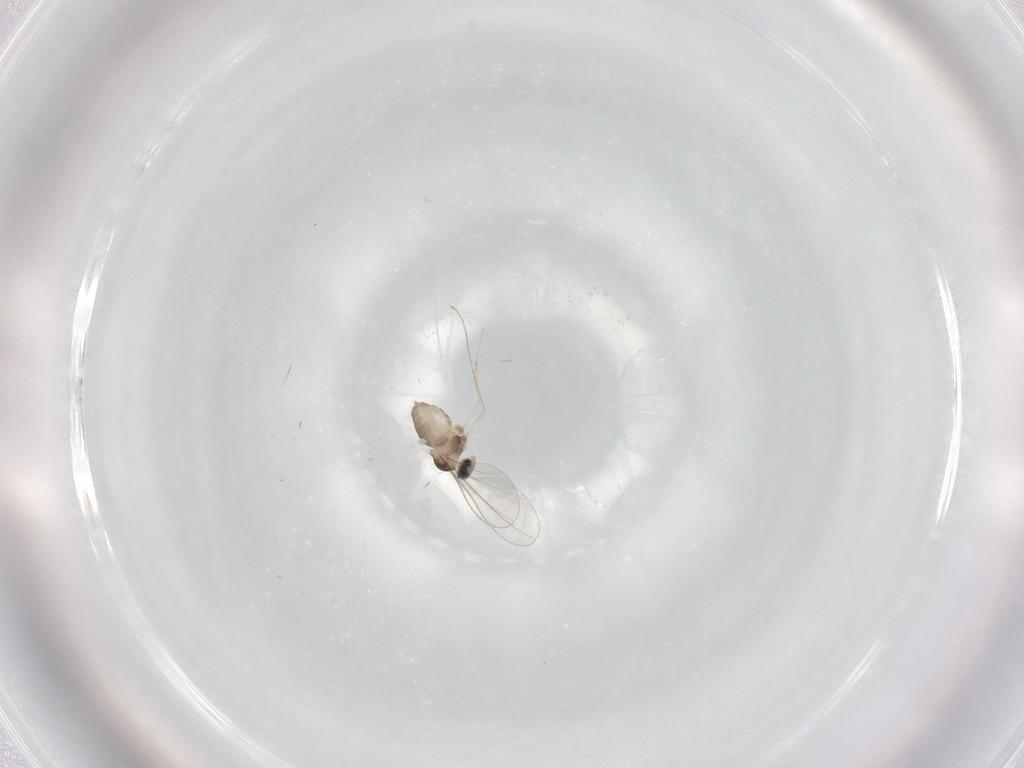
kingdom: Animalia
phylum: Arthropoda
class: Insecta
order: Diptera
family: Cecidomyiidae
